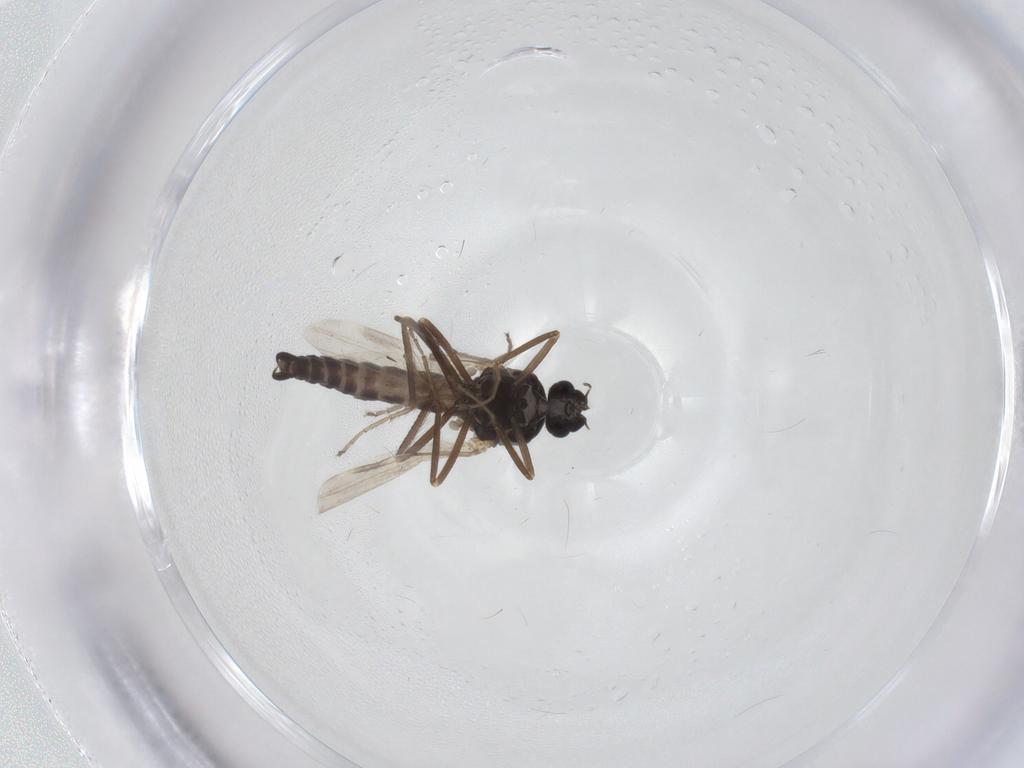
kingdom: Animalia
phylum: Arthropoda
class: Insecta
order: Diptera
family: Ceratopogonidae
